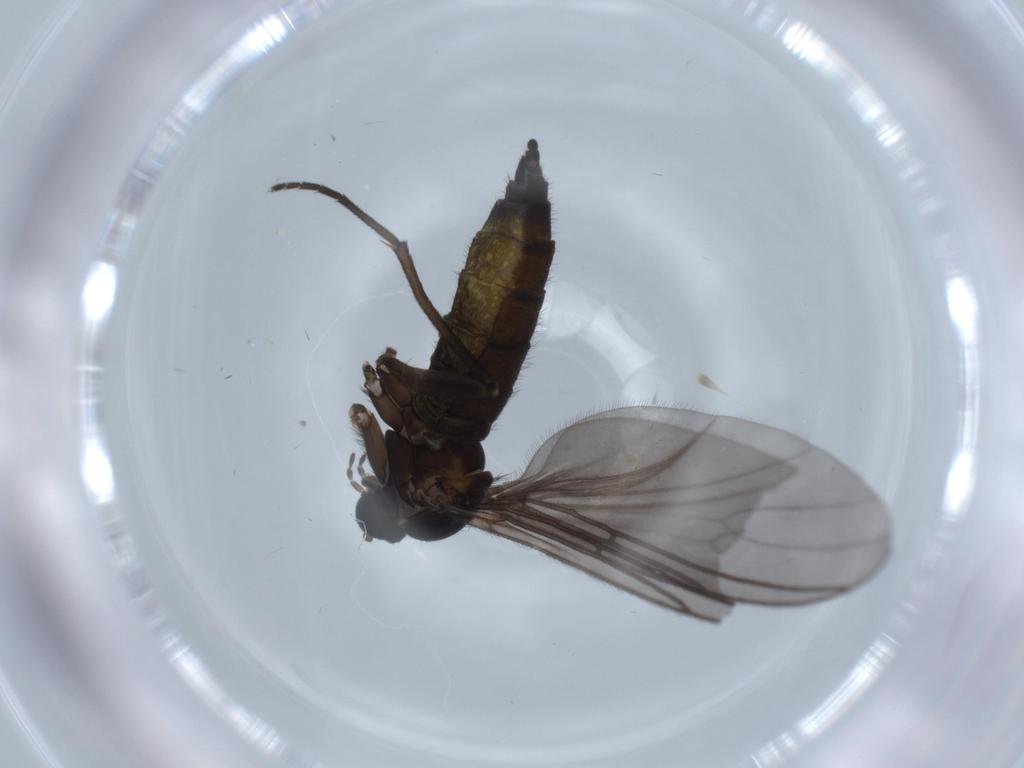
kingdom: Animalia
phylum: Arthropoda
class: Insecta
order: Diptera
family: Sciaridae
